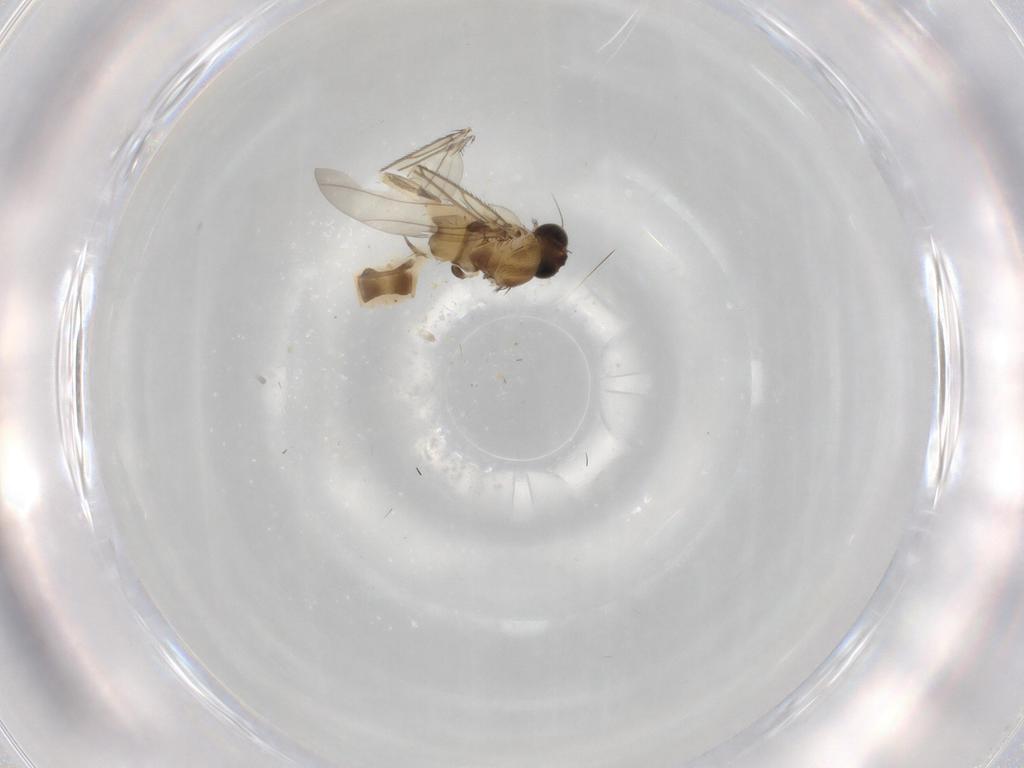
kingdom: Animalia
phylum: Arthropoda
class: Insecta
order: Diptera
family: Phoridae
